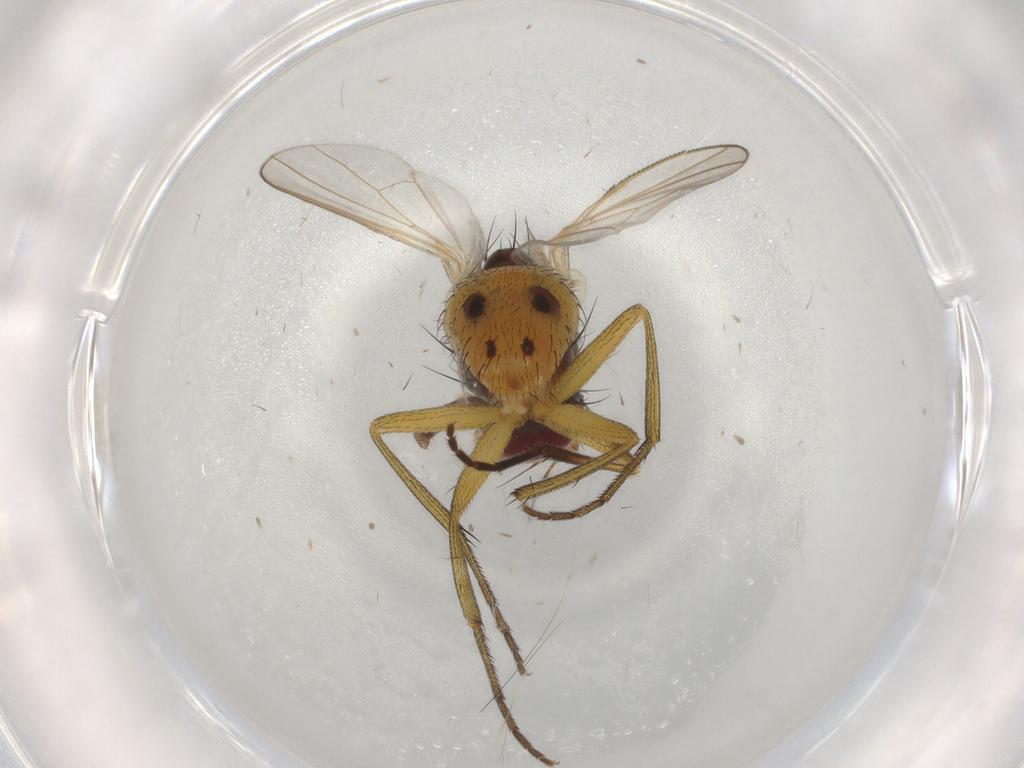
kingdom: Animalia
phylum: Arthropoda
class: Insecta
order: Diptera
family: Muscidae
